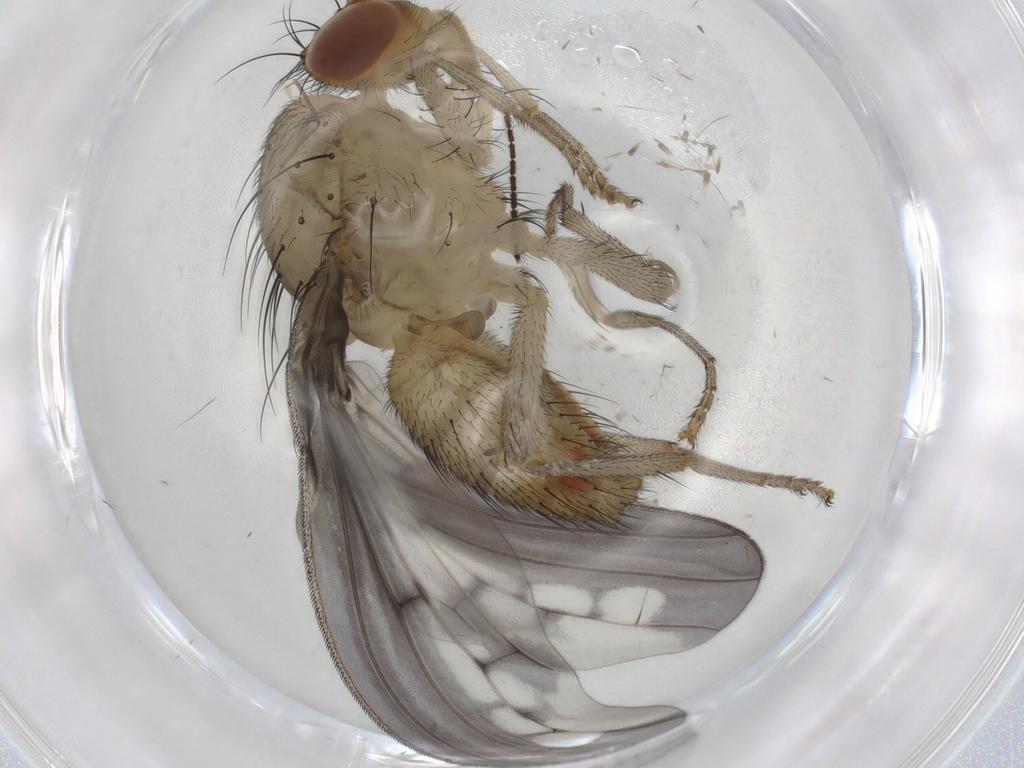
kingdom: Animalia
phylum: Arthropoda
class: Insecta
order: Diptera
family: Cecidomyiidae
